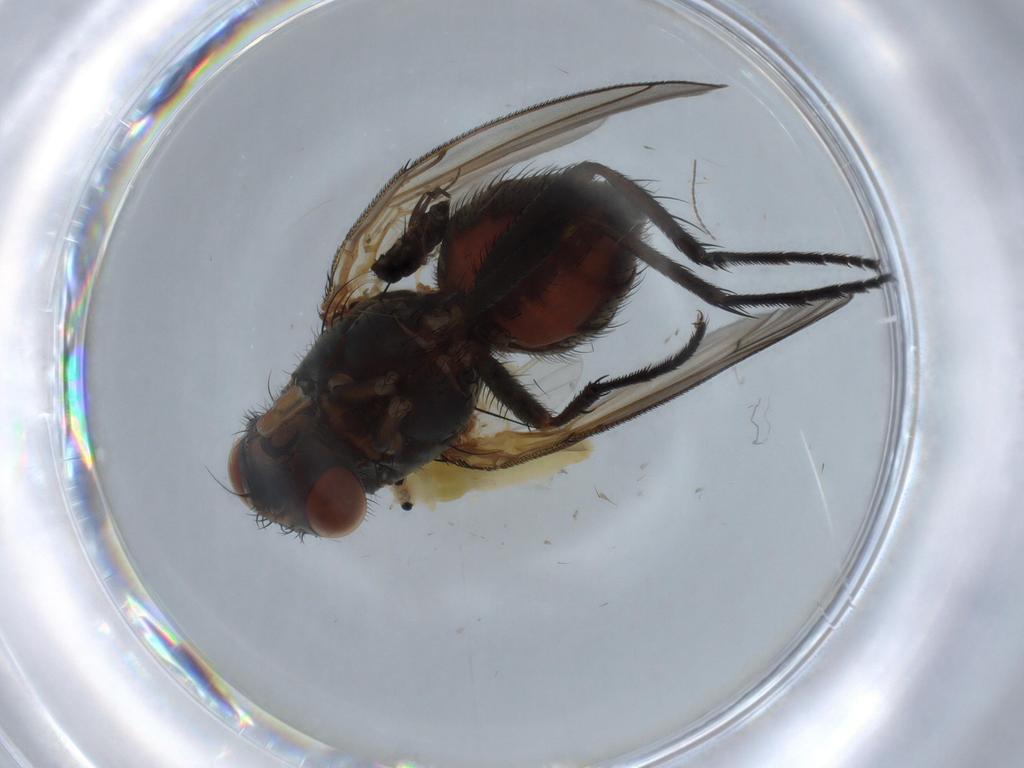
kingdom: Animalia
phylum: Arthropoda
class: Insecta
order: Diptera
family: Anthomyiidae
